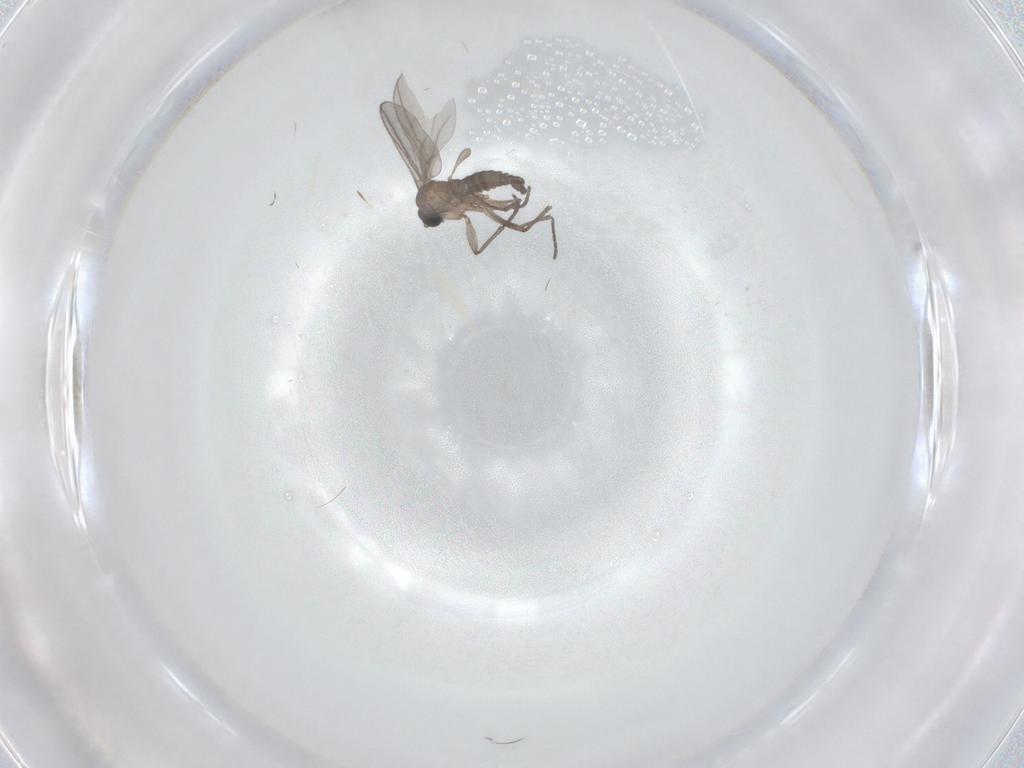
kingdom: Animalia
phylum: Arthropoda
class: Insecta
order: Diptera
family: Sciaridae
